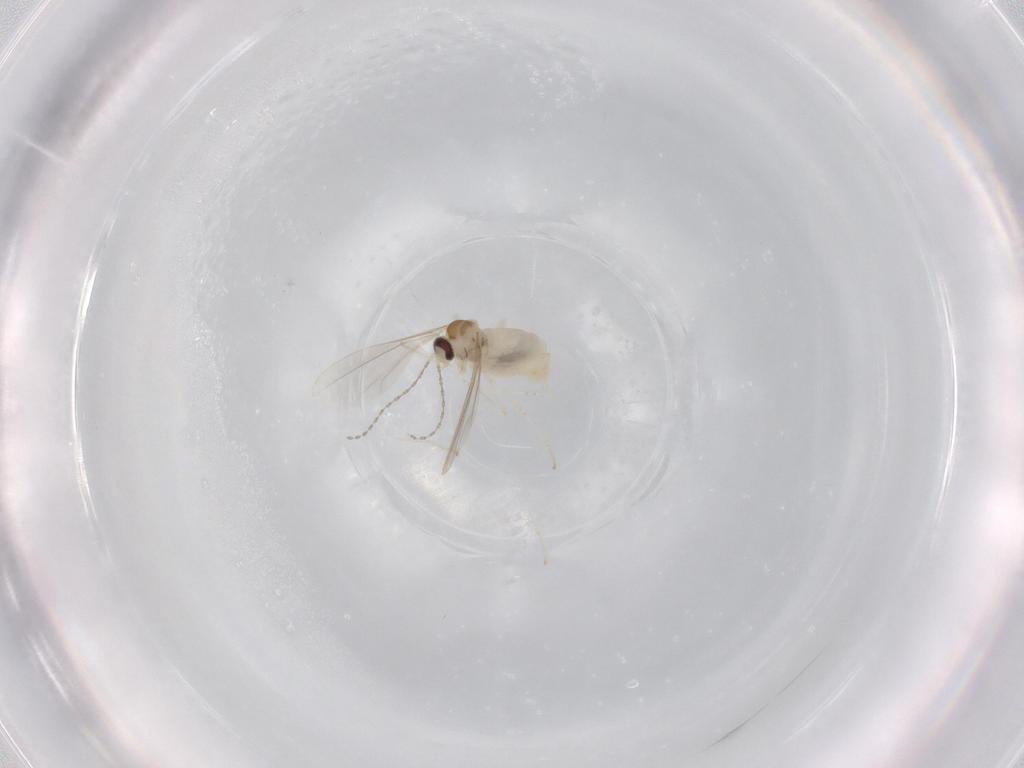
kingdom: Animalia
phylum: Arthropoda
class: Insecta
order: Diptera
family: Cecidomyiidae
